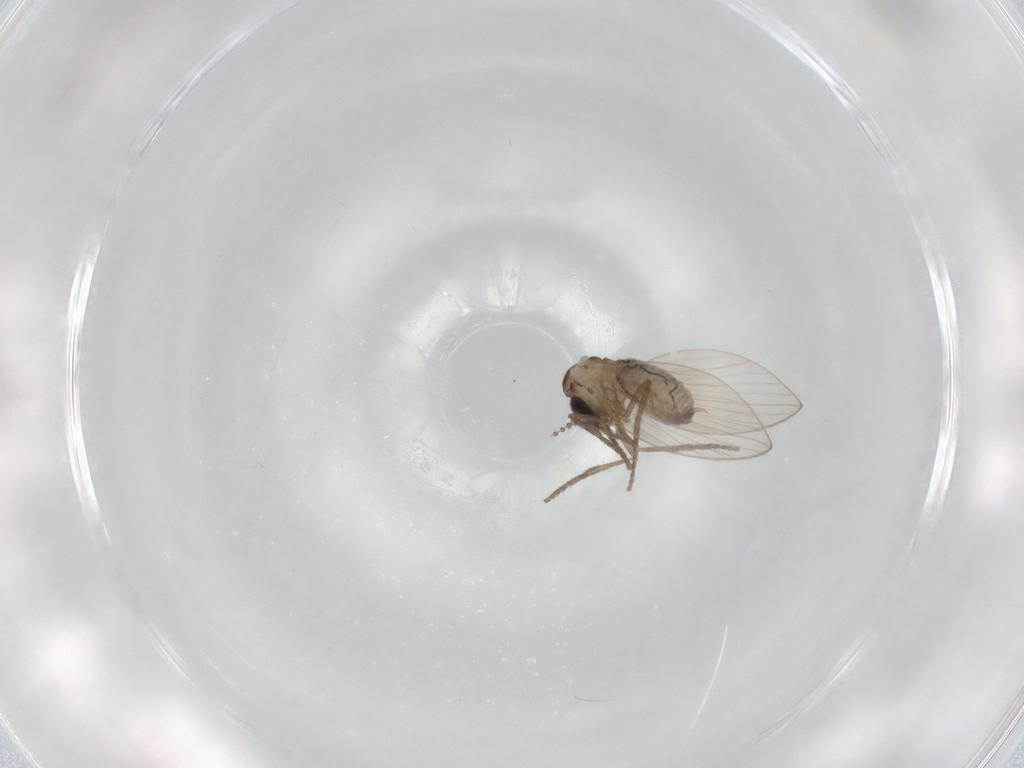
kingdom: Animalia
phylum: Arthropoda
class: Insecta
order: Diptera
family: Phoridae
